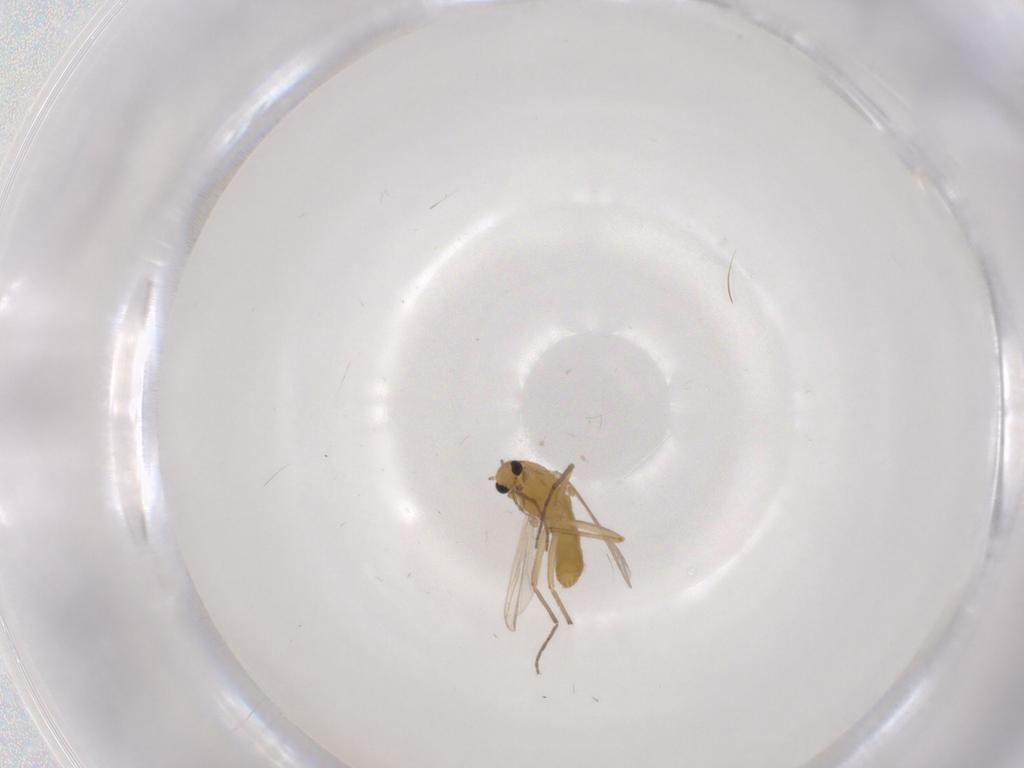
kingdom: Animalia
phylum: Arthropoda
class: Insecta
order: Diptera
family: Chironomidae
